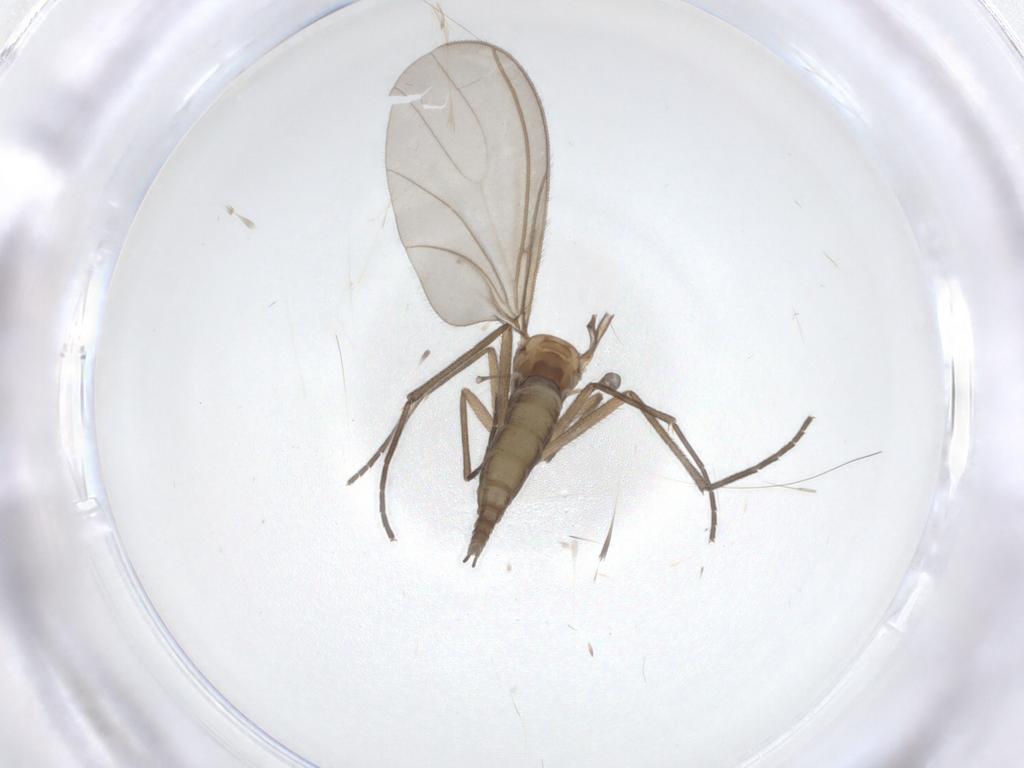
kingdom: Animalia
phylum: Arthropoda
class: Insecta
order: Diptera
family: Sciaridae
